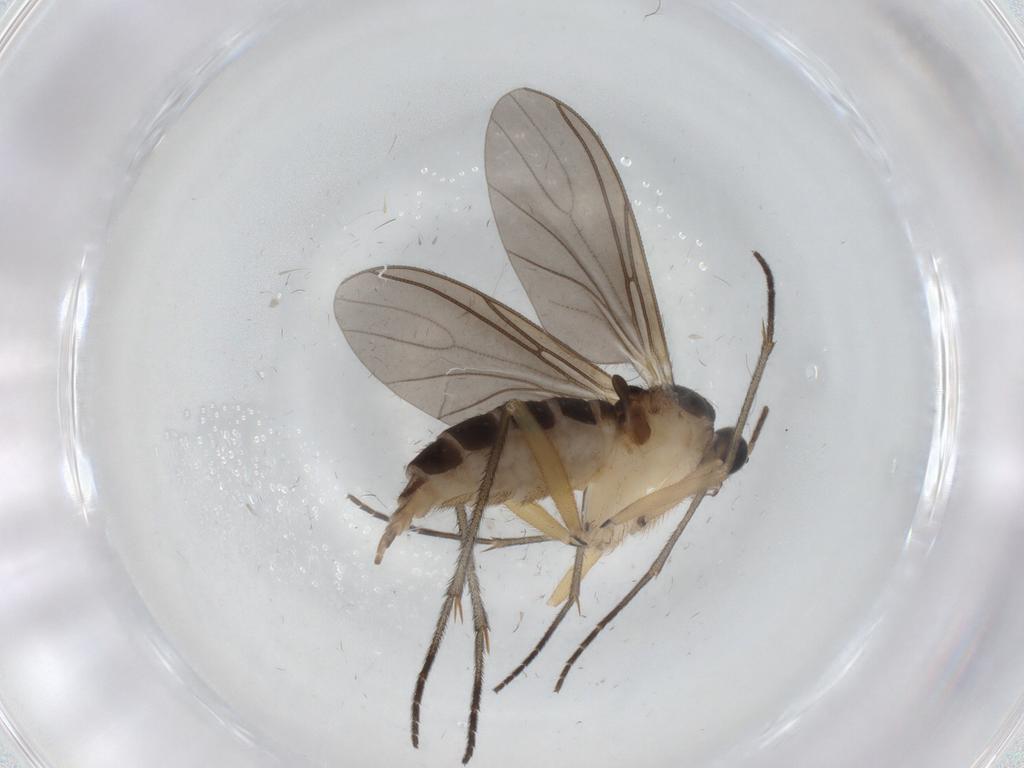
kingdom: Animalia
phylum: Arthropoda
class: Insecta
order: Diptera
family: Sciaridae
